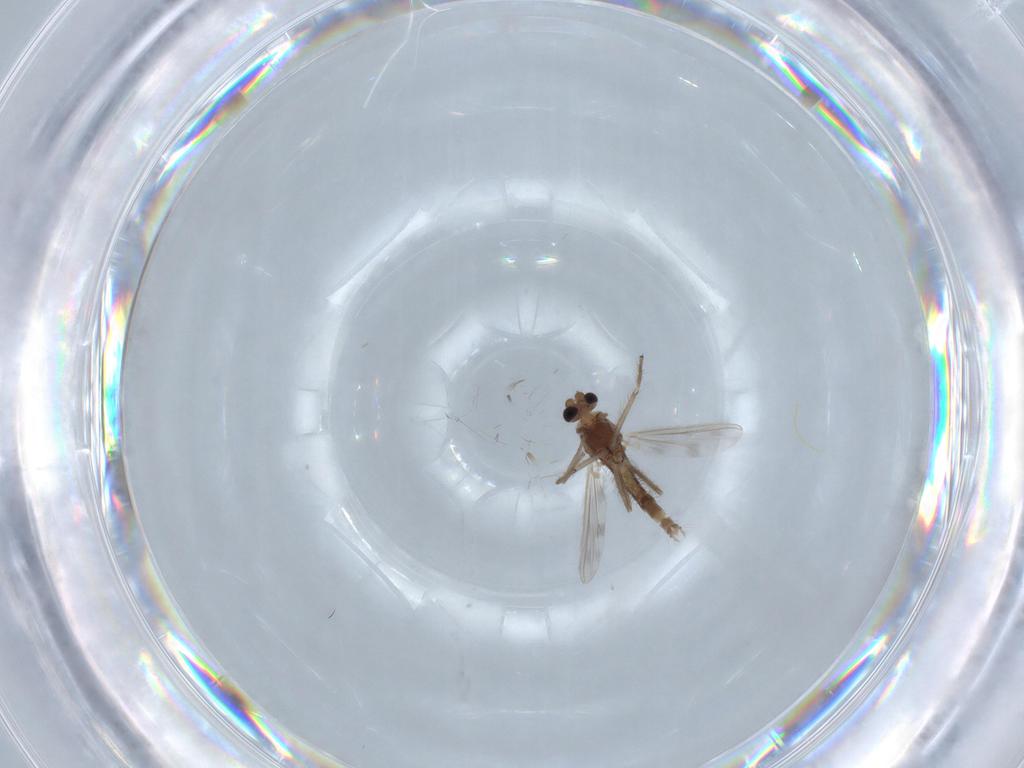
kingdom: Animalia
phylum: Arthropoda
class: Insecta
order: Diptera
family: Chironomidae
